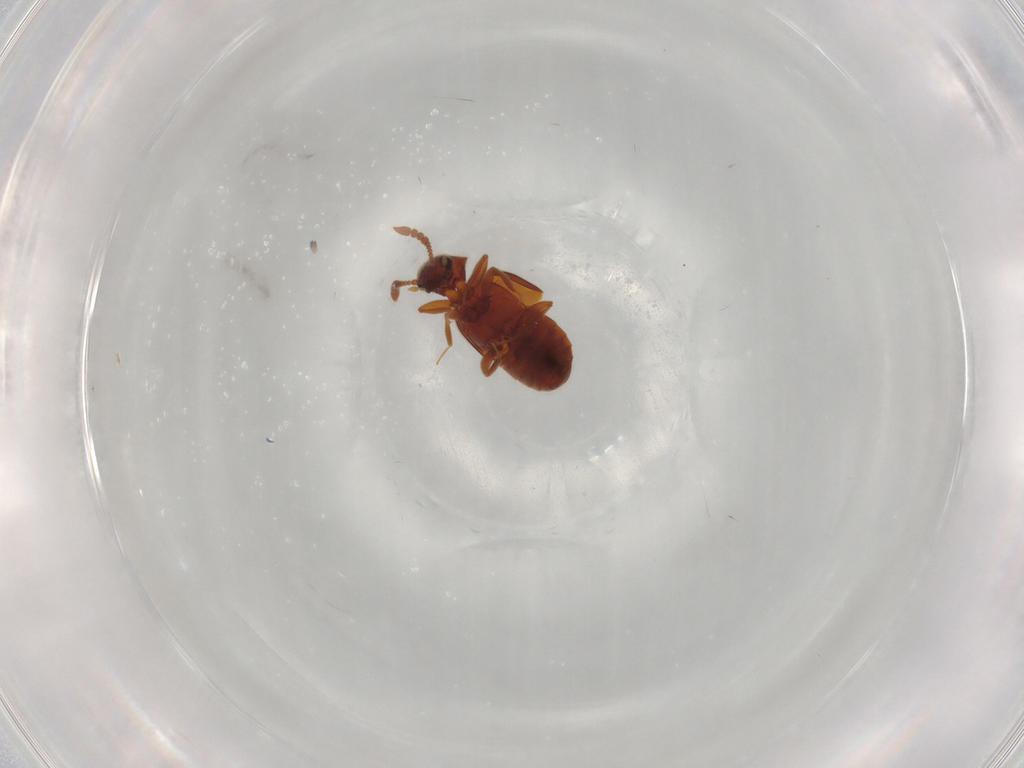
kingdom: Animalia
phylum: Arthropoda
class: Insecta
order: Coleoptera
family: Staphylinidae
